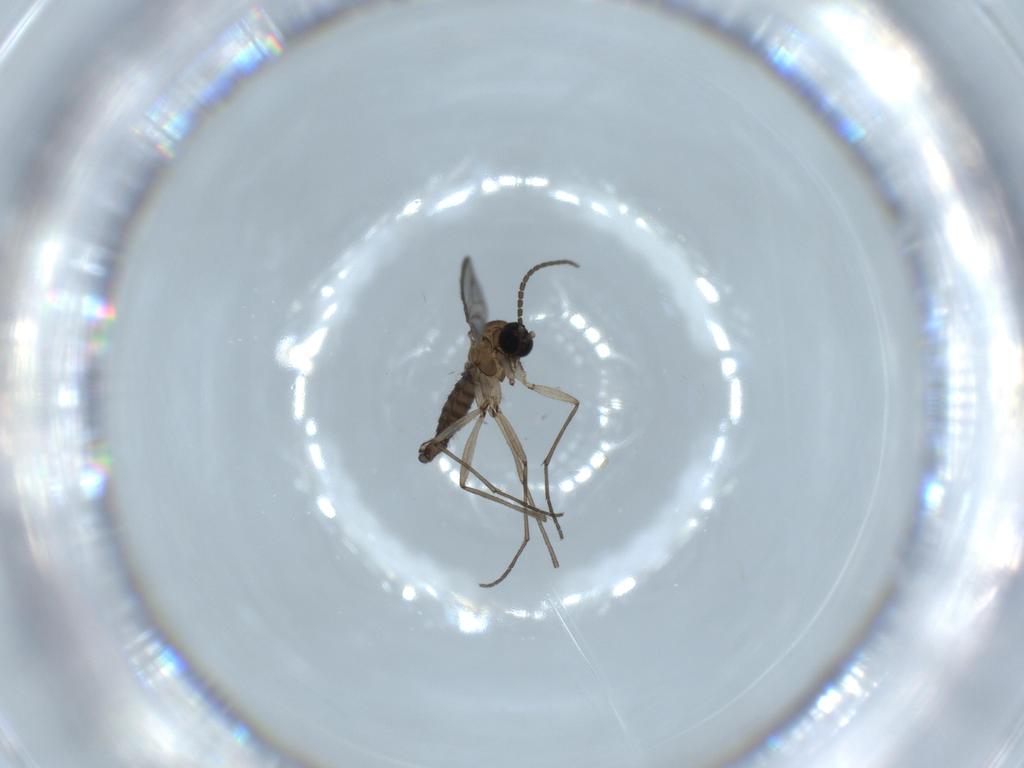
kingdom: Animalia
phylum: Arthropoda
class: Insecta
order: Diptera
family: Sciaridae
